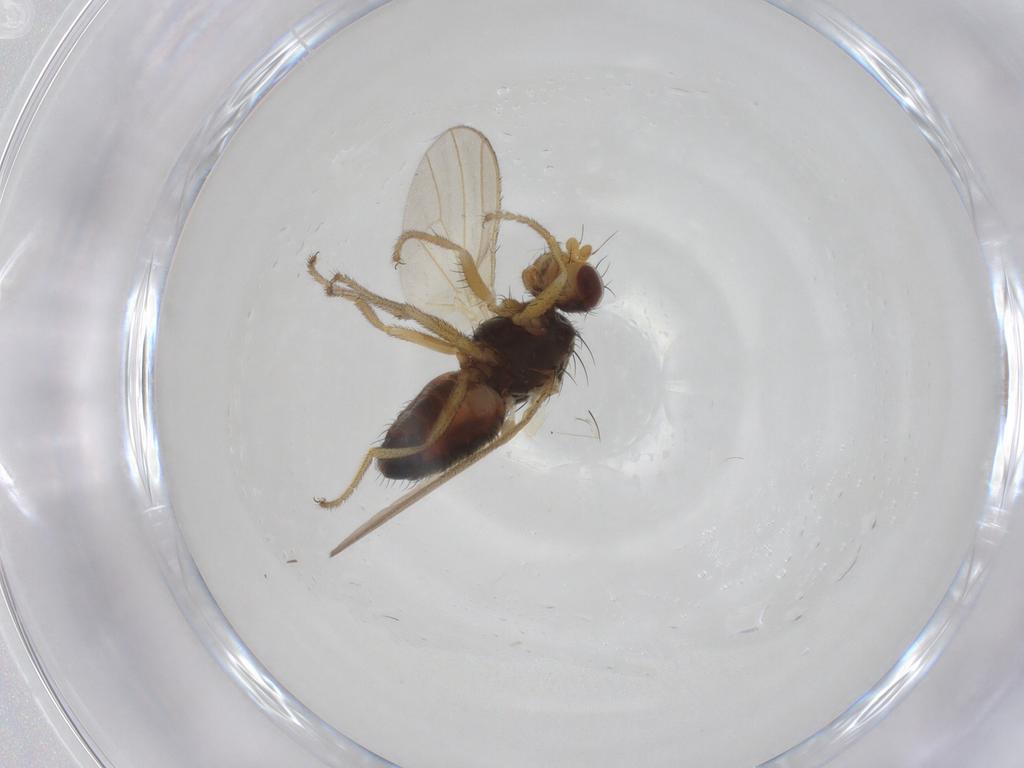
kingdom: Animalia
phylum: Arthropoda
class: Insecta
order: Diptera
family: Heleomyzidae
